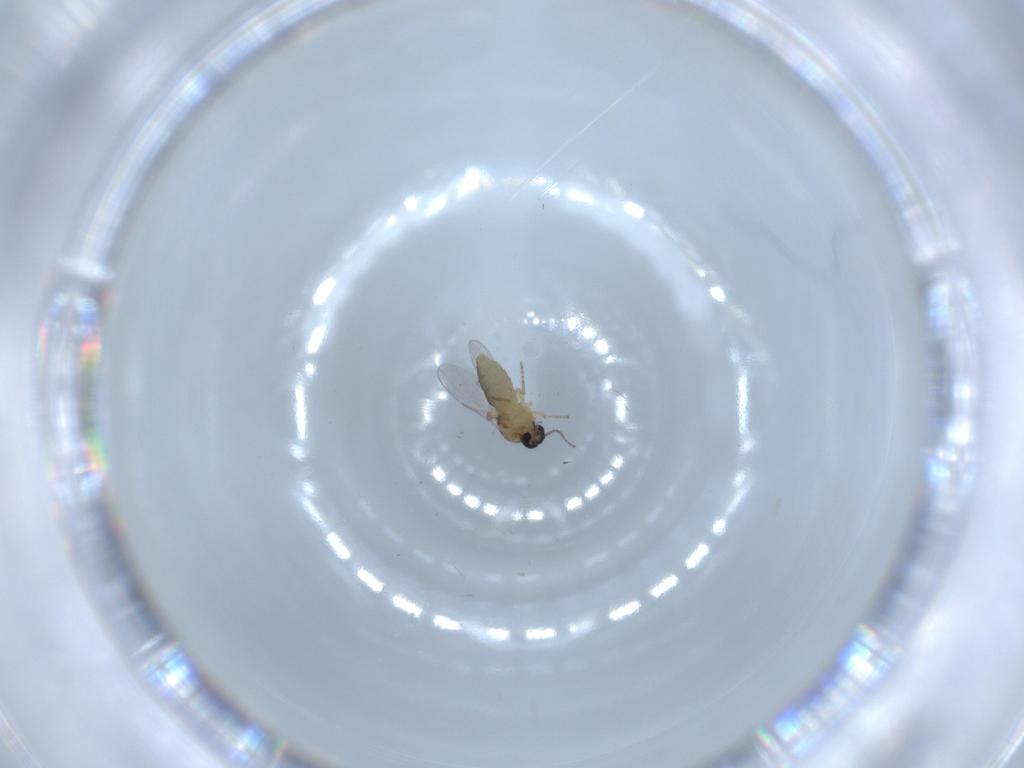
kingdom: Animalia
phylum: Arthropoda
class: Insecta
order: Diptera
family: Ceratopogonidae
